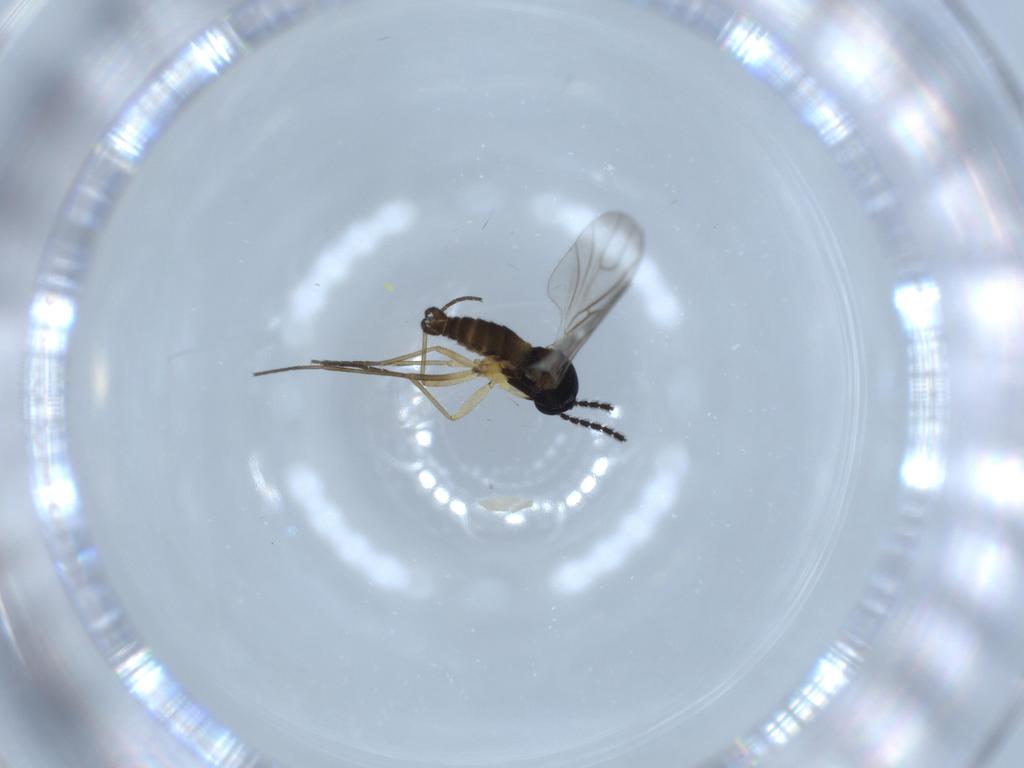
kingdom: Animalia
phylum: Arthropoda
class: Insecta
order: Diptera
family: Sciaridae
